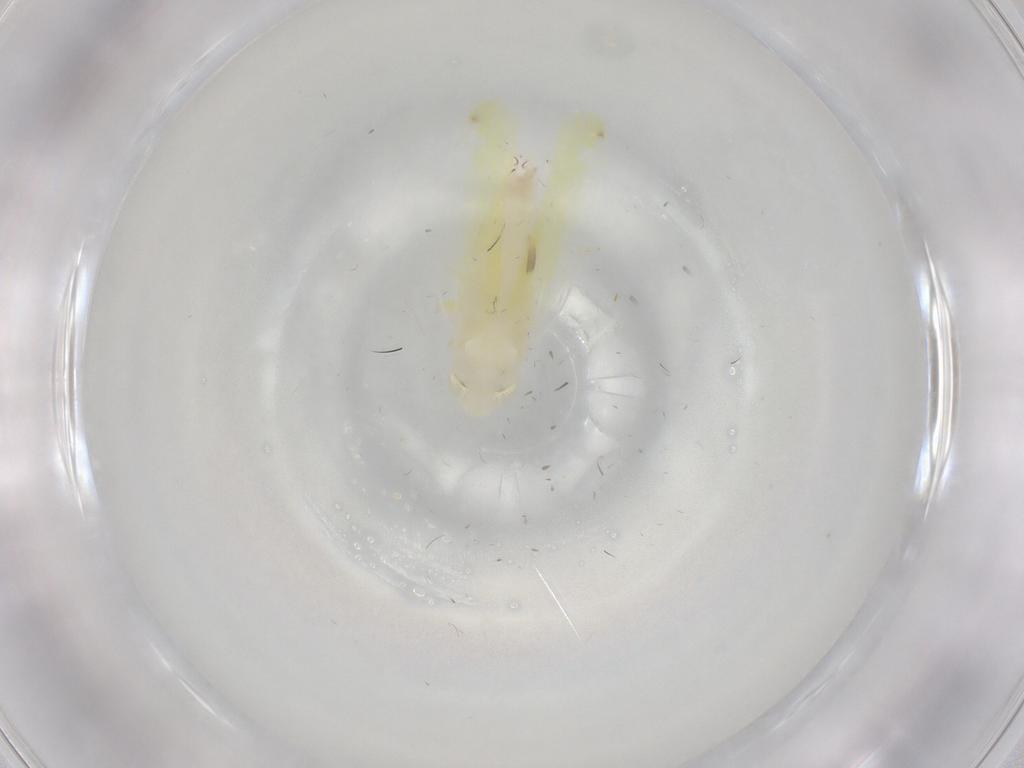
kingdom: Animalia
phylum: Arthropoda
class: Insecta
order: Hemiptera
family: Cicadellidae
